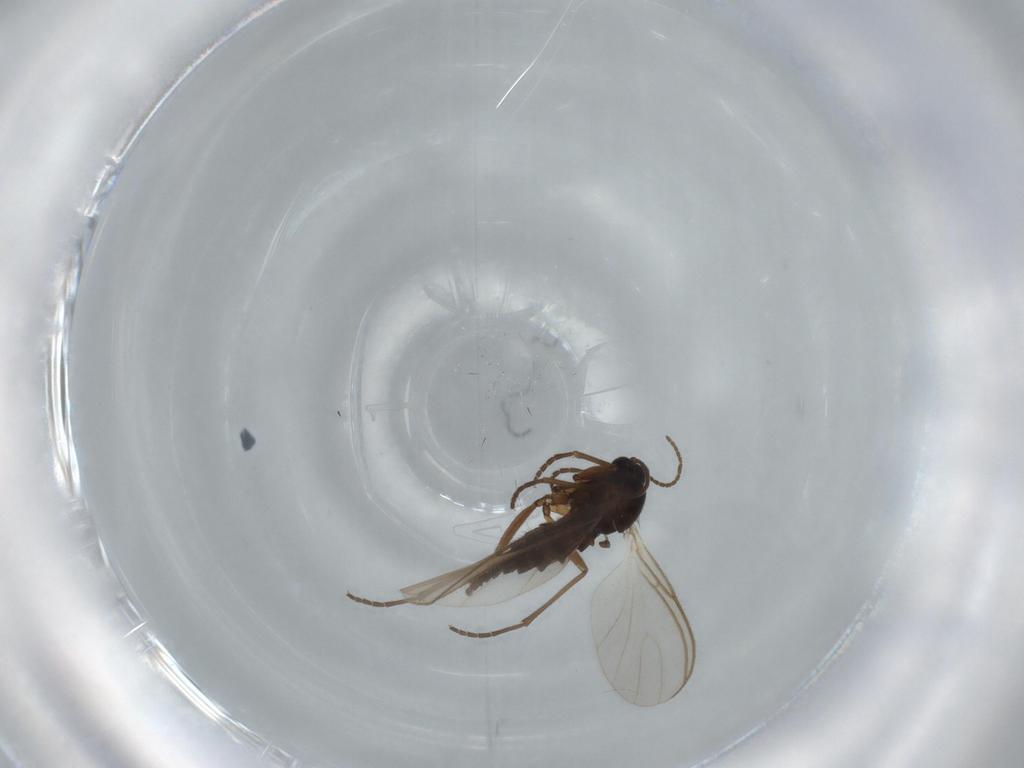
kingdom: Animalia
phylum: Arthropoda
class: Insecta
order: Diptera
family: Sciaridae
